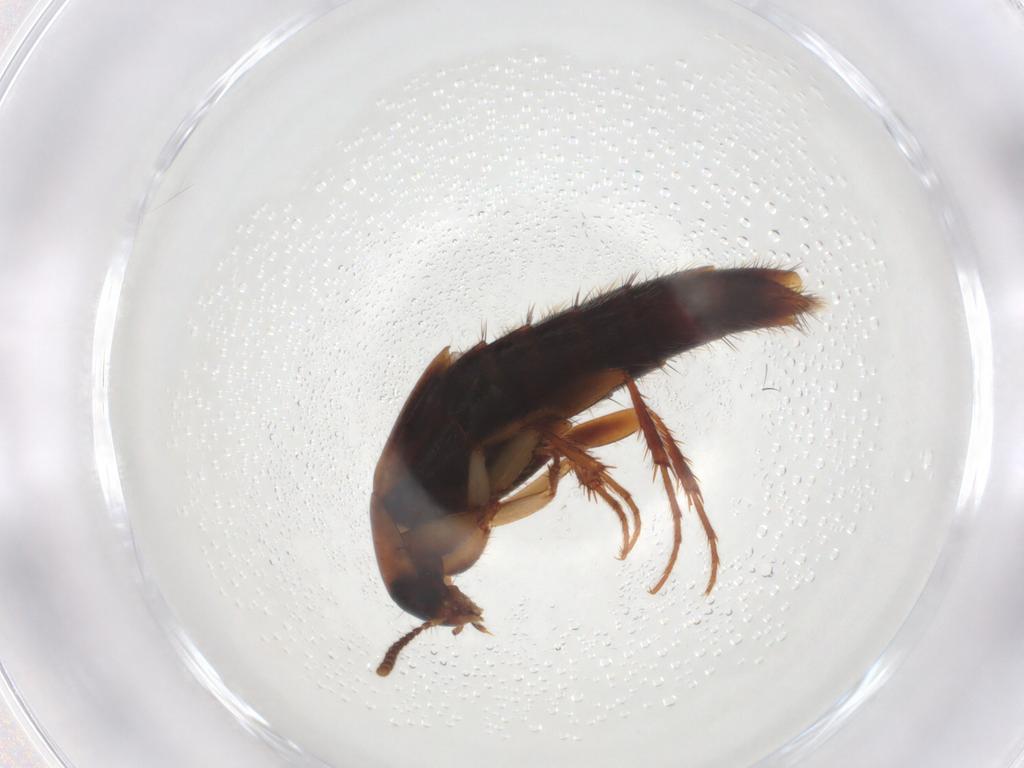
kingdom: Animalia
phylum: Arthropoda
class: Insecta
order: Coleoptera
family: Staphylinidae
